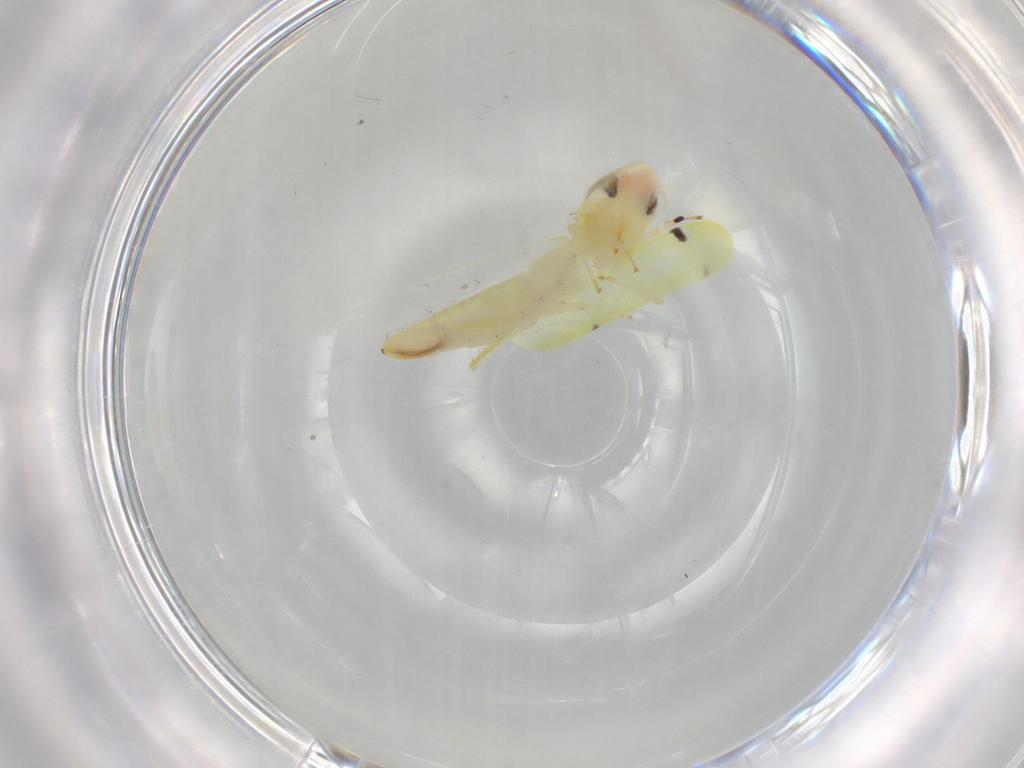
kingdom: Animalia
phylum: Arthropoda
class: Insecta
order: Hemiptera
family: Cicadellidae
